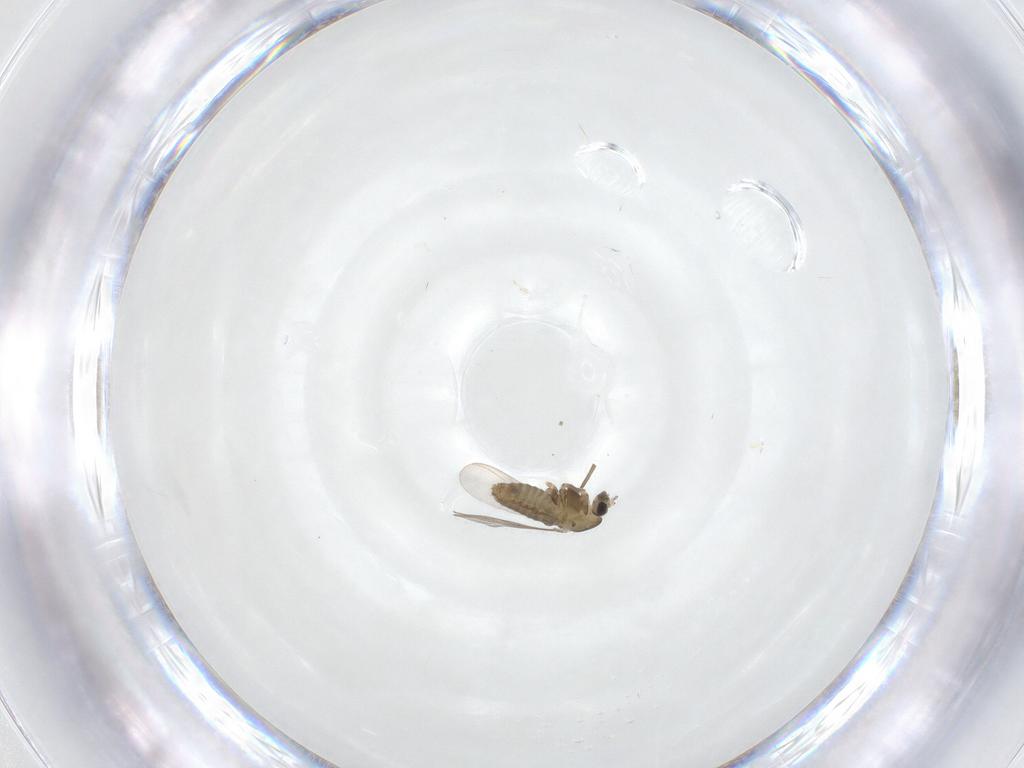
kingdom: Animalia
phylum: Arthropoda
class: Insecta
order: Diptera
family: Chironomidae
